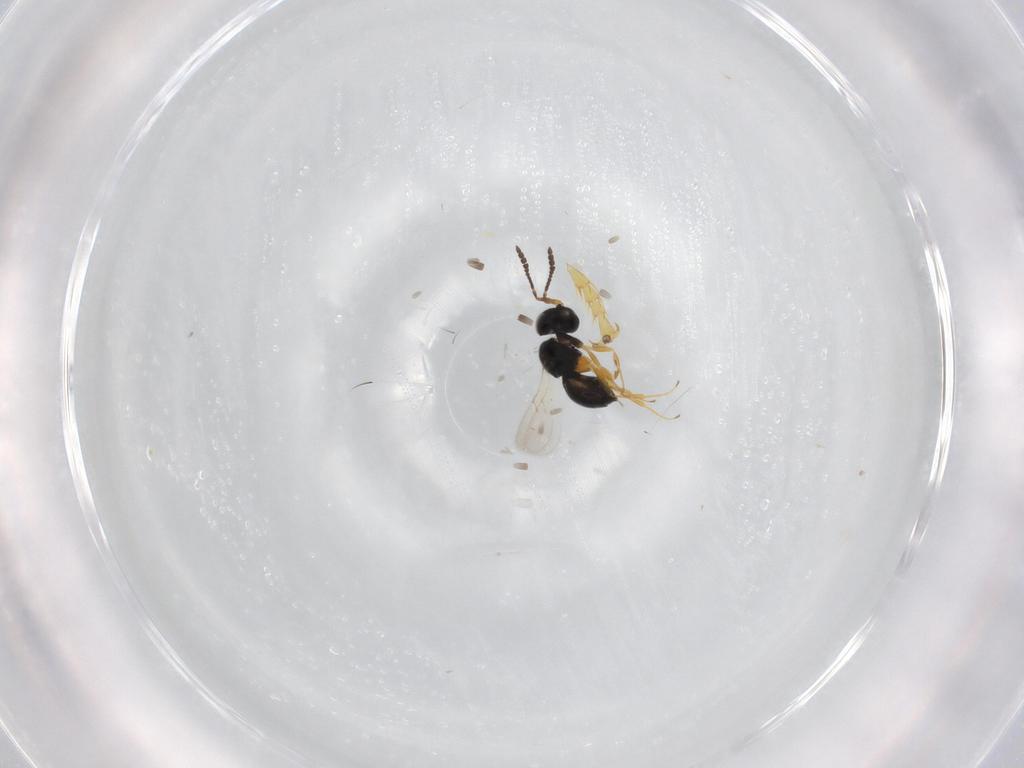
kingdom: Animalia
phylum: Arthropoda
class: Insecta
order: Hymenoptera
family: Scelionidae
